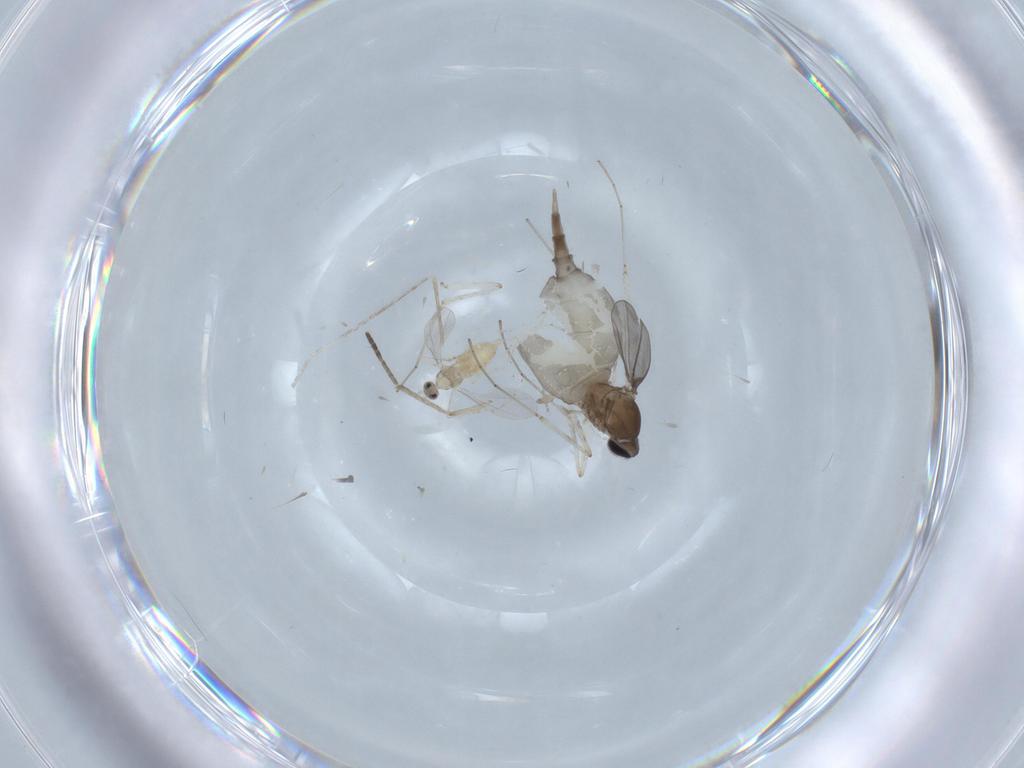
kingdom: Animalia
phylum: Arthropoda
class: Insecta
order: Diptera
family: Cecidomyiidae
